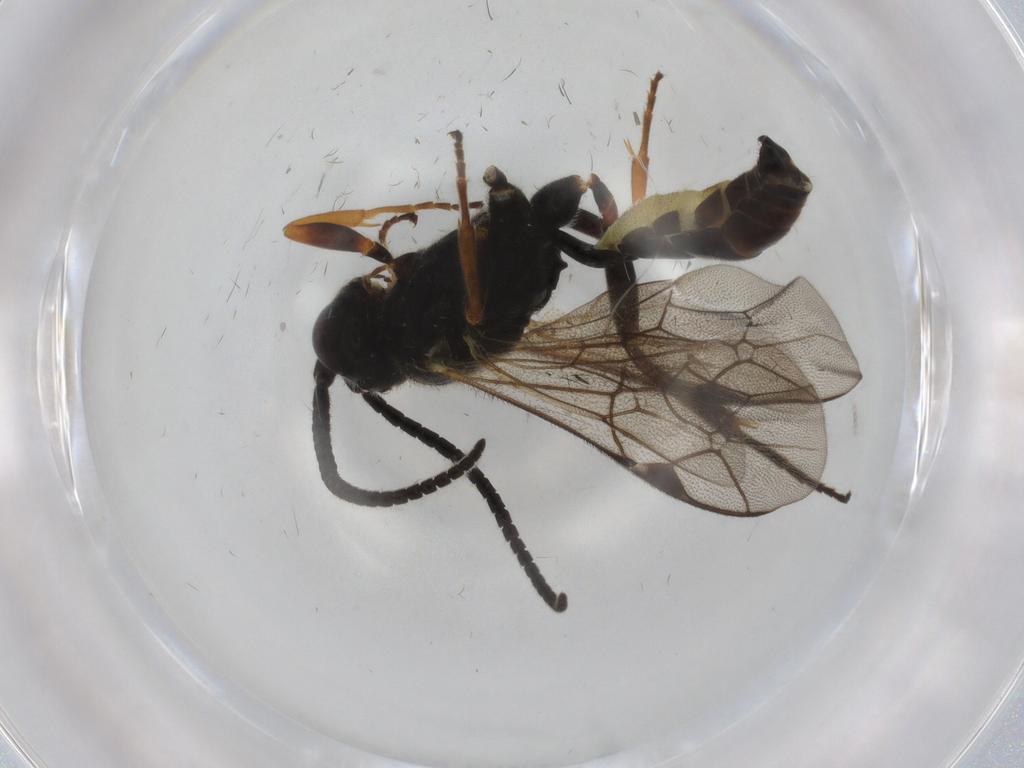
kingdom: Animalia
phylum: Arthropoda
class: Insecta
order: Hymenoptera
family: Ichneumonidae
